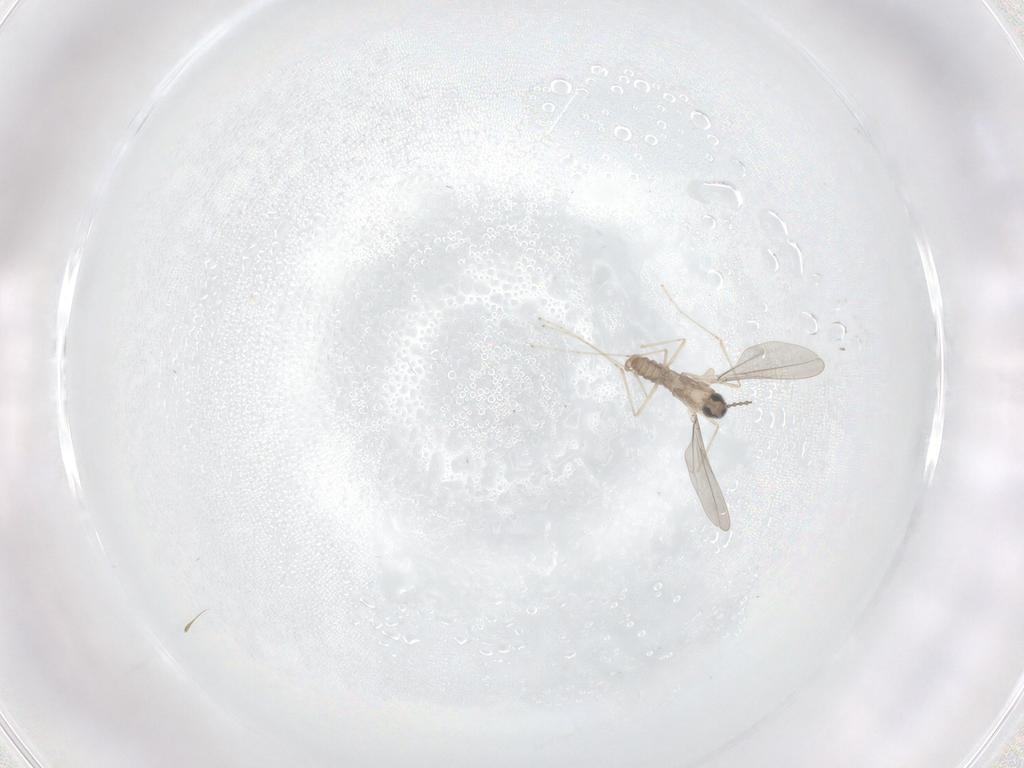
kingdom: Animalia
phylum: Arthropoda
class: Insecta
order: Diptera
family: Cecidomyiidae
